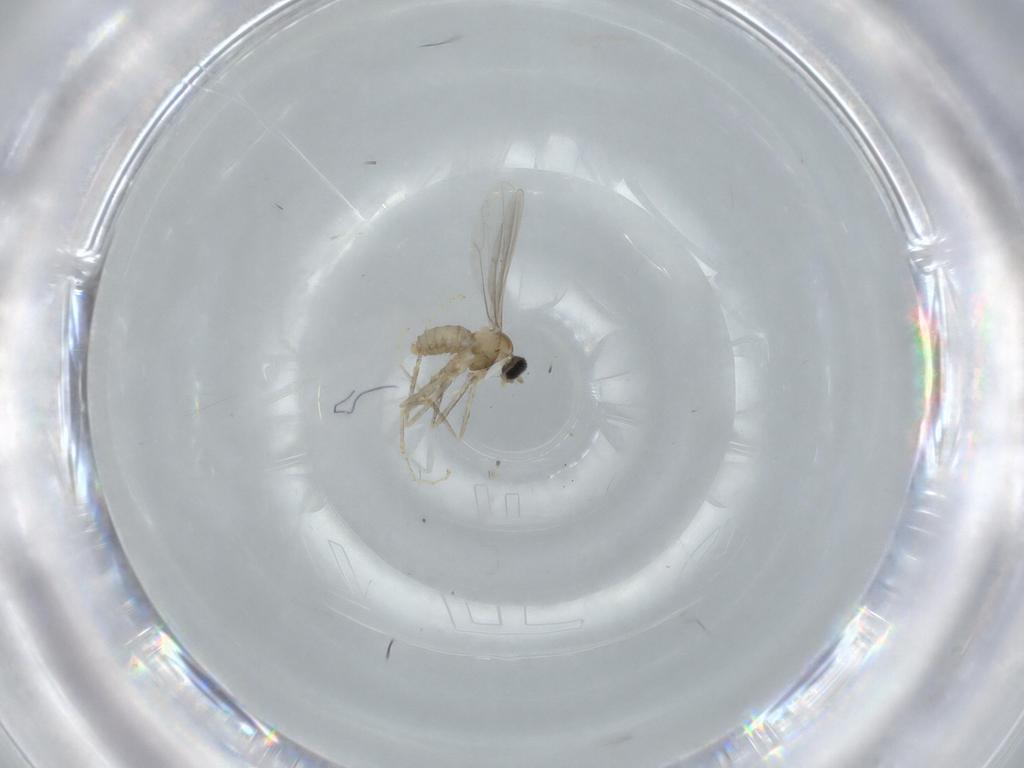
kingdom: Animalia
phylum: Arthropoda
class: Insecta
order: Diptera
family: Cecidomyiidae
